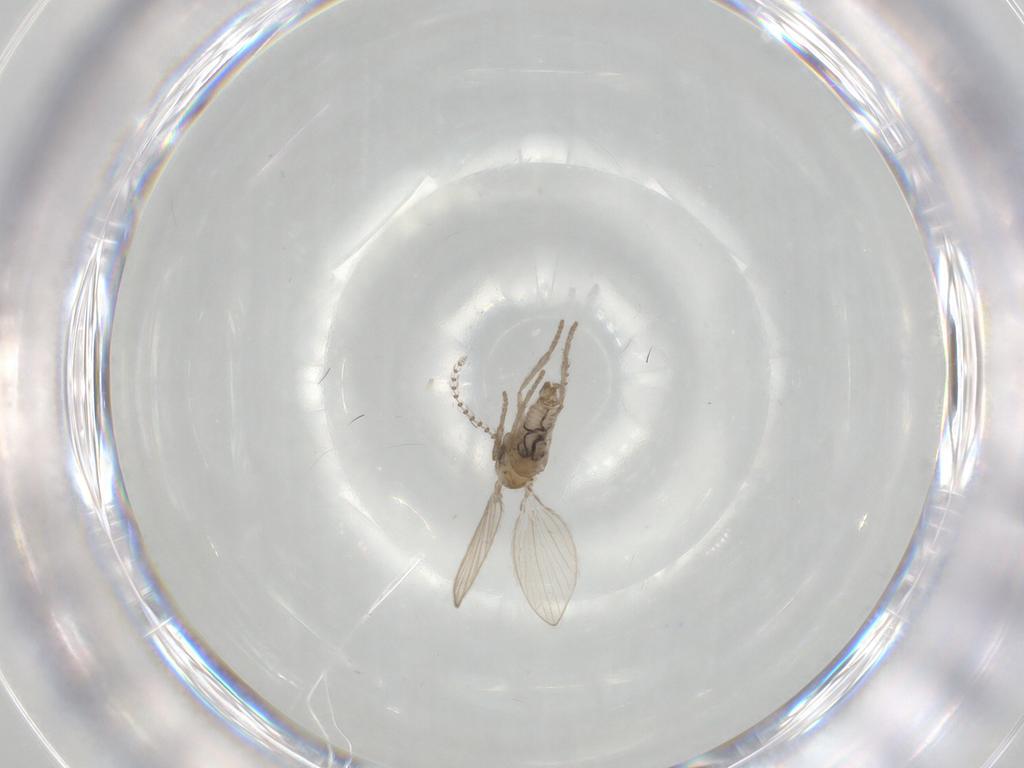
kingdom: Animalia
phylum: Arthropoda
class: Insecta
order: Diptera
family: Psychodidae
